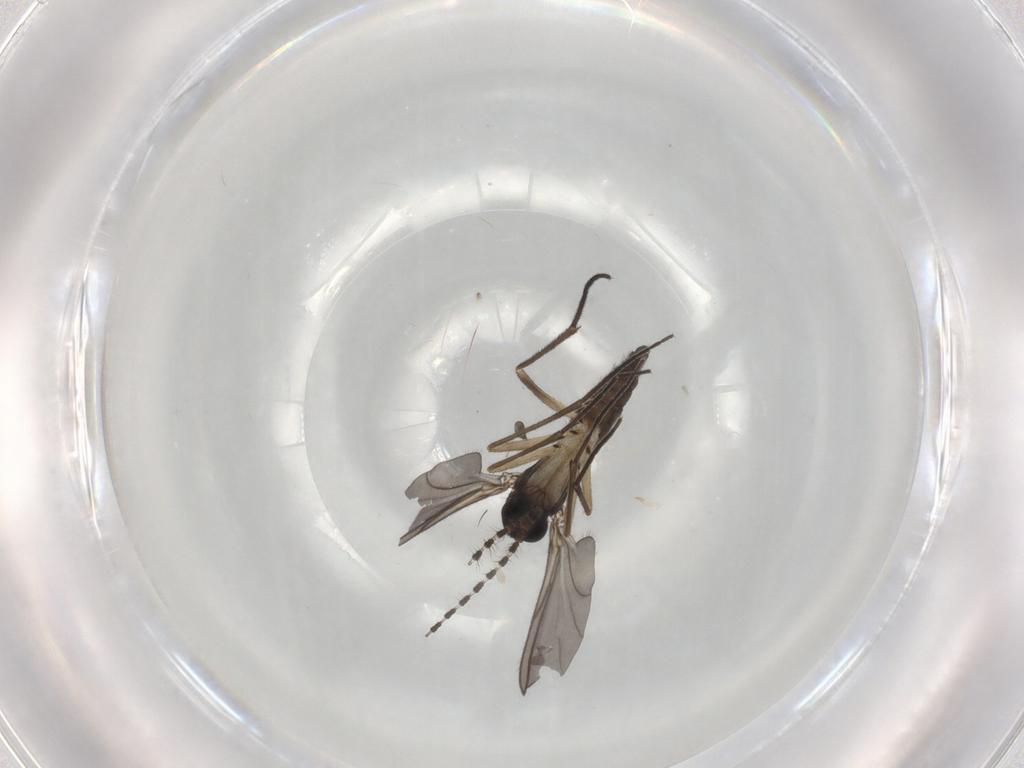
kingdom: Animalia
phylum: Arthropoda
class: Insecta
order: Diptera
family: Sciaridae
